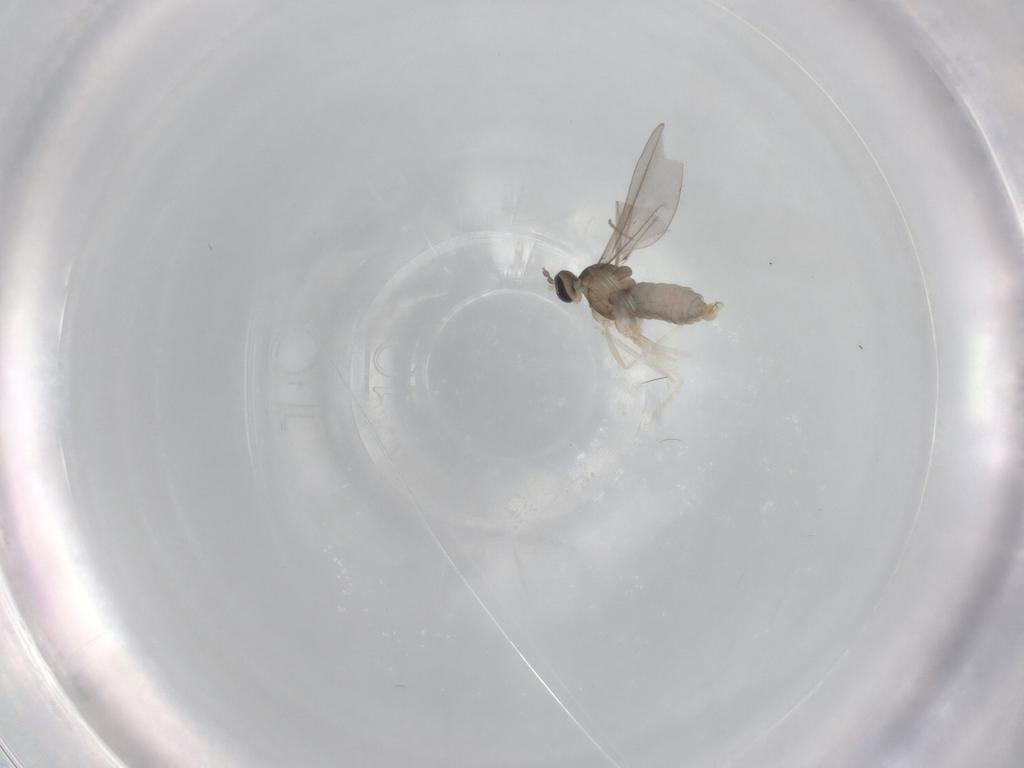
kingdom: Animalia
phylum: Arthropoda
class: Insecta
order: Diptera
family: Cecidomyiidae
